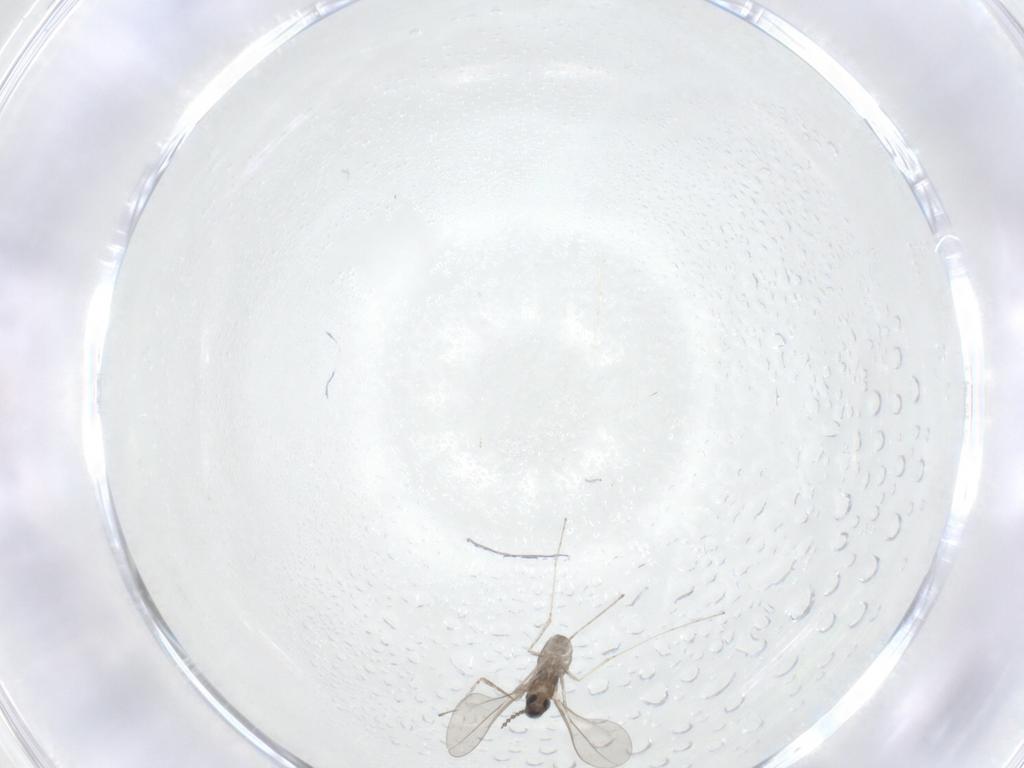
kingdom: Animalia
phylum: Arthropoda
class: Insecta
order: Diptera
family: Cecidomyiidae
